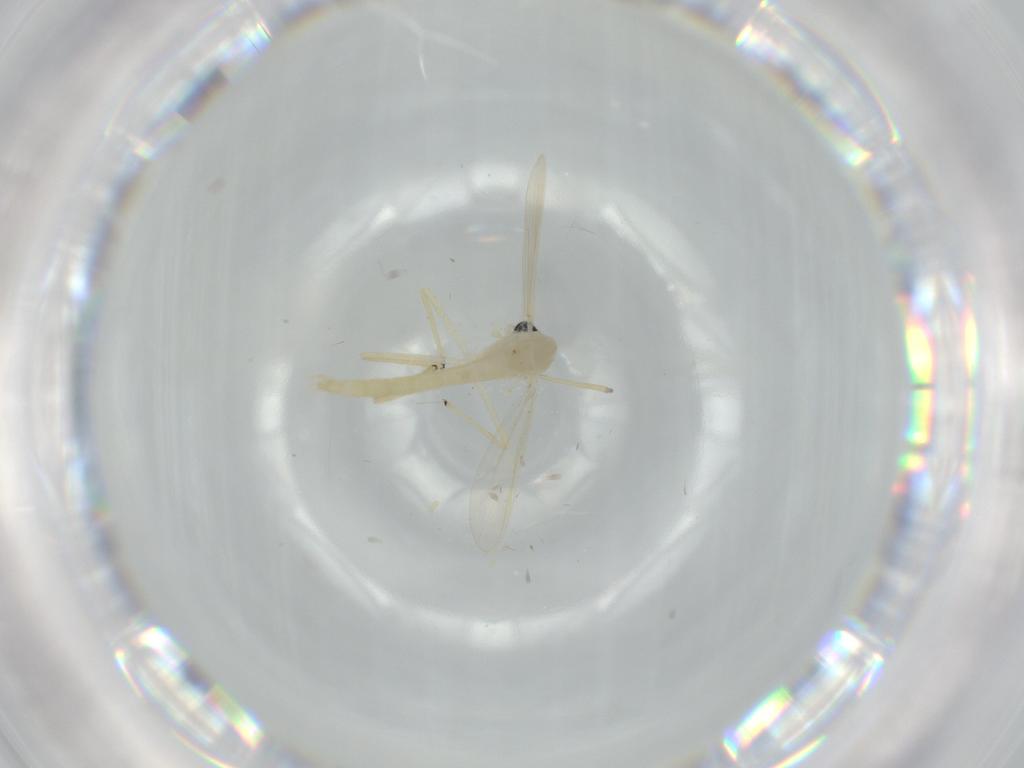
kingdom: Animalia
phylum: Arthropoda
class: Insecta
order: Diptera
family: Chironomidae
